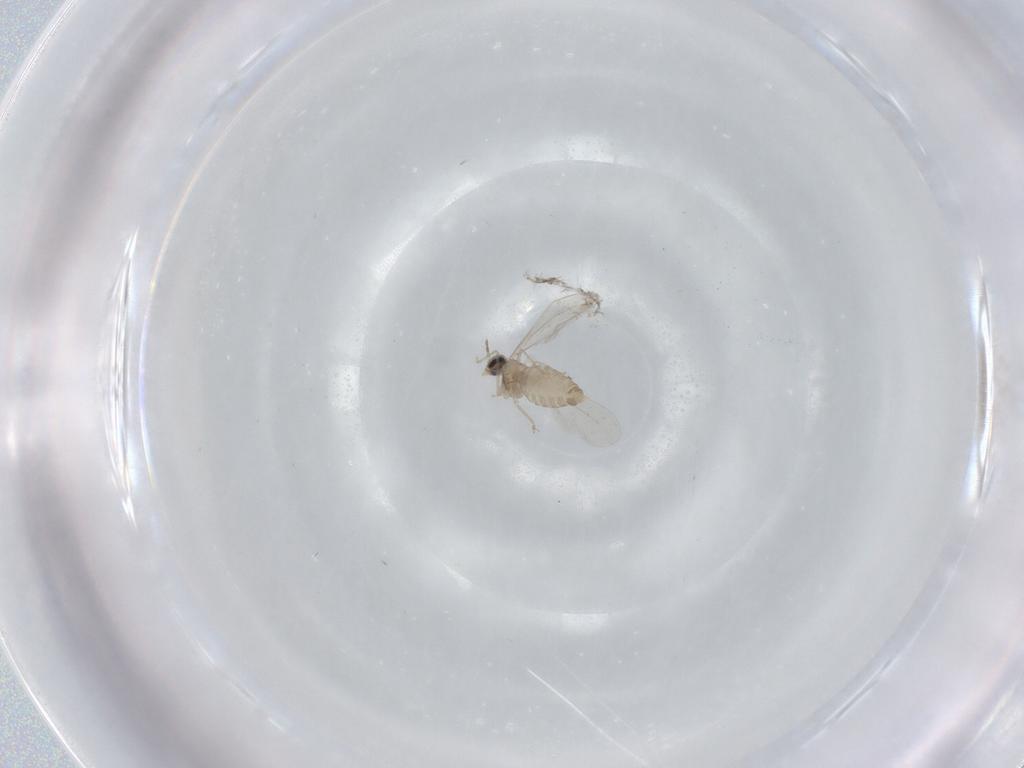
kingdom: Animalia
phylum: Arthropoda
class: Insecta
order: Diptera
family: Chironomidae
